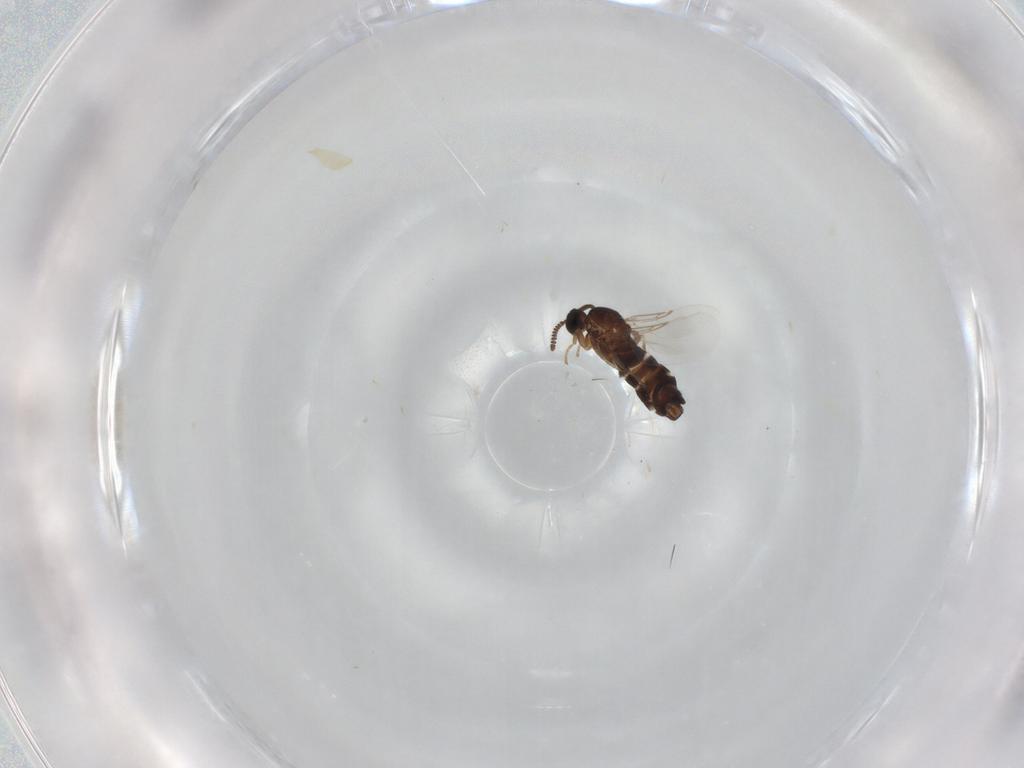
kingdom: Animalia
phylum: Arthropoda
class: Insecta
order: Diptera
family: Scatopsidae
